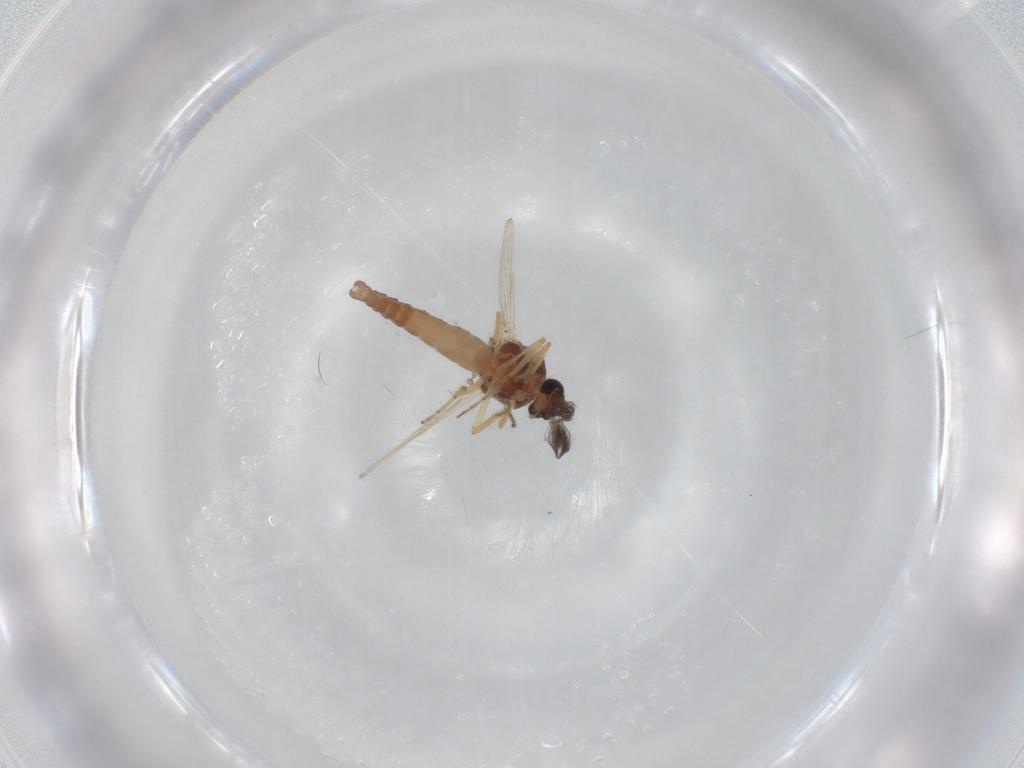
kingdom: Animalia
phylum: Arthropoda
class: Insecta
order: Diptera
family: Ceratopogonidae
